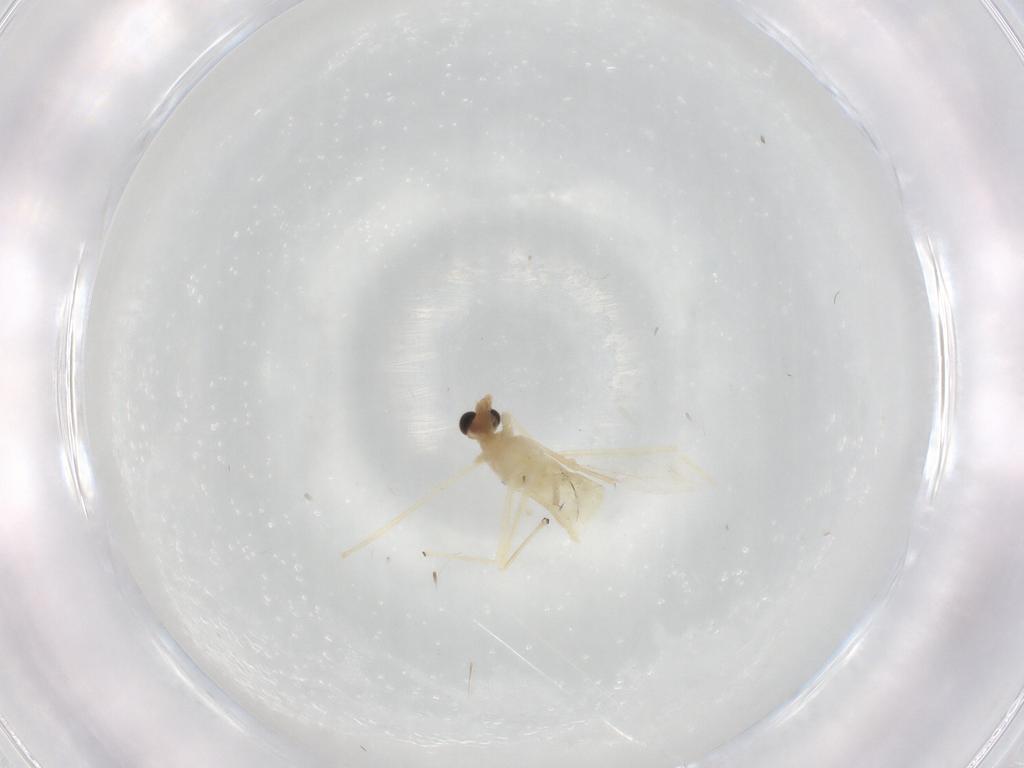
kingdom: Animalia
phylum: Arthropoda
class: Insecta
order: Diptera
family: Chironomidae
